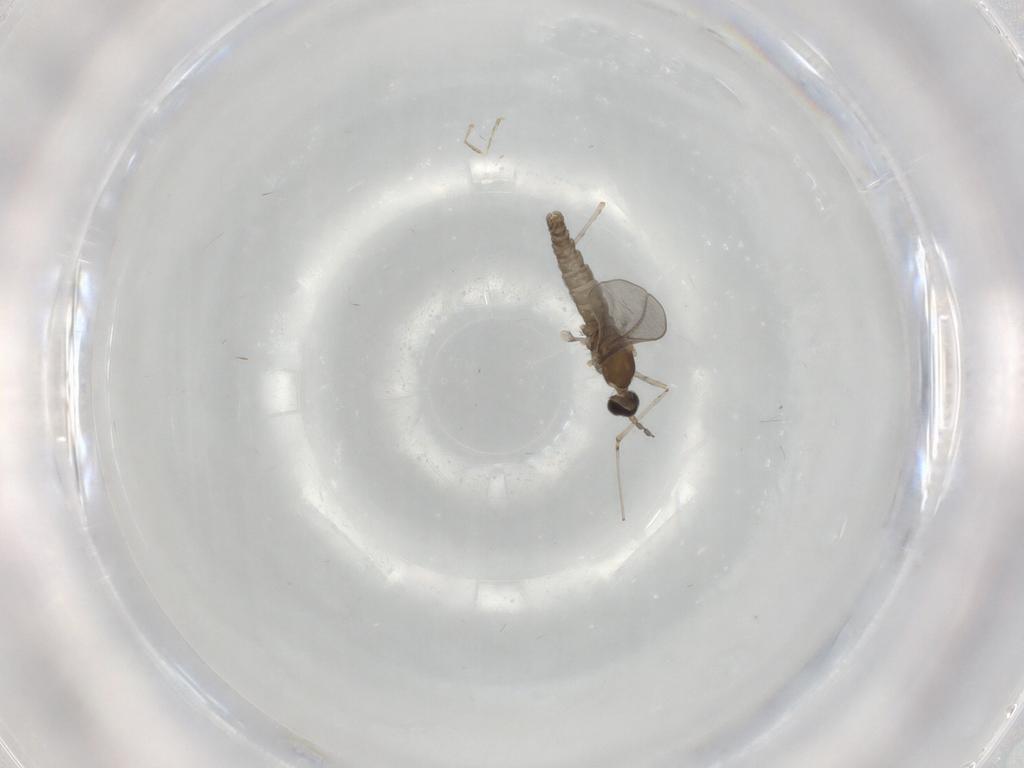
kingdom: Animalia
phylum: Arthropoda
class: Insecta
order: Diptera
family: Cecidomyiidae
